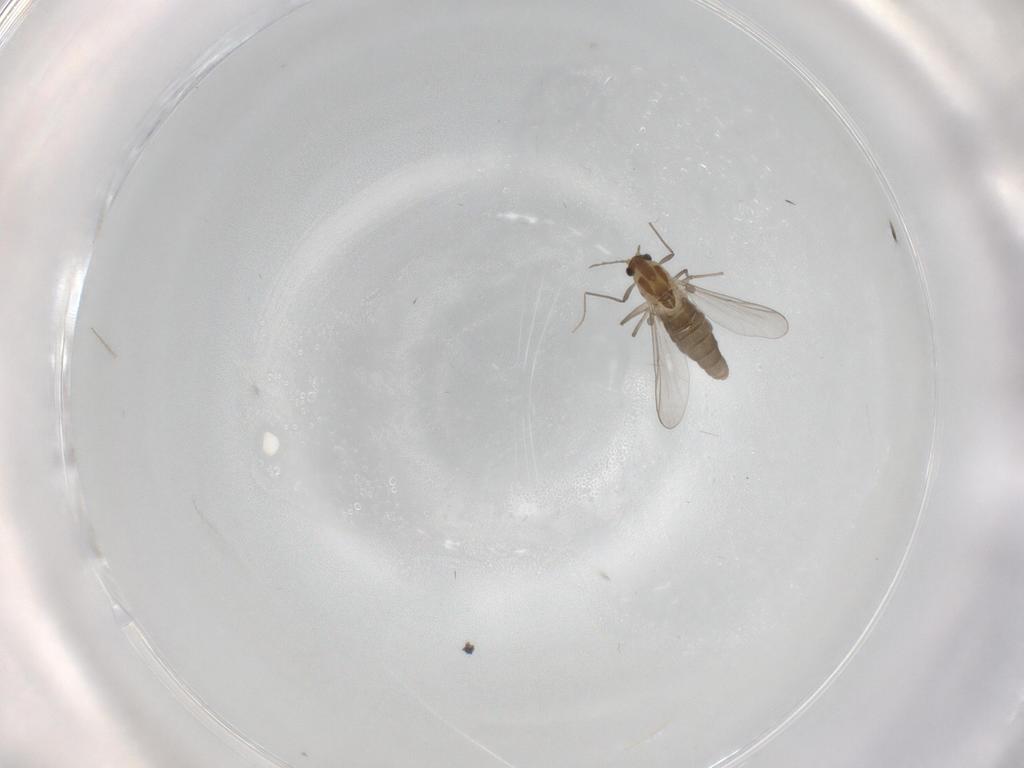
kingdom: Animalia
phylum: Arthropoda
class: Insecta
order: Diptera
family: Chironomidae
